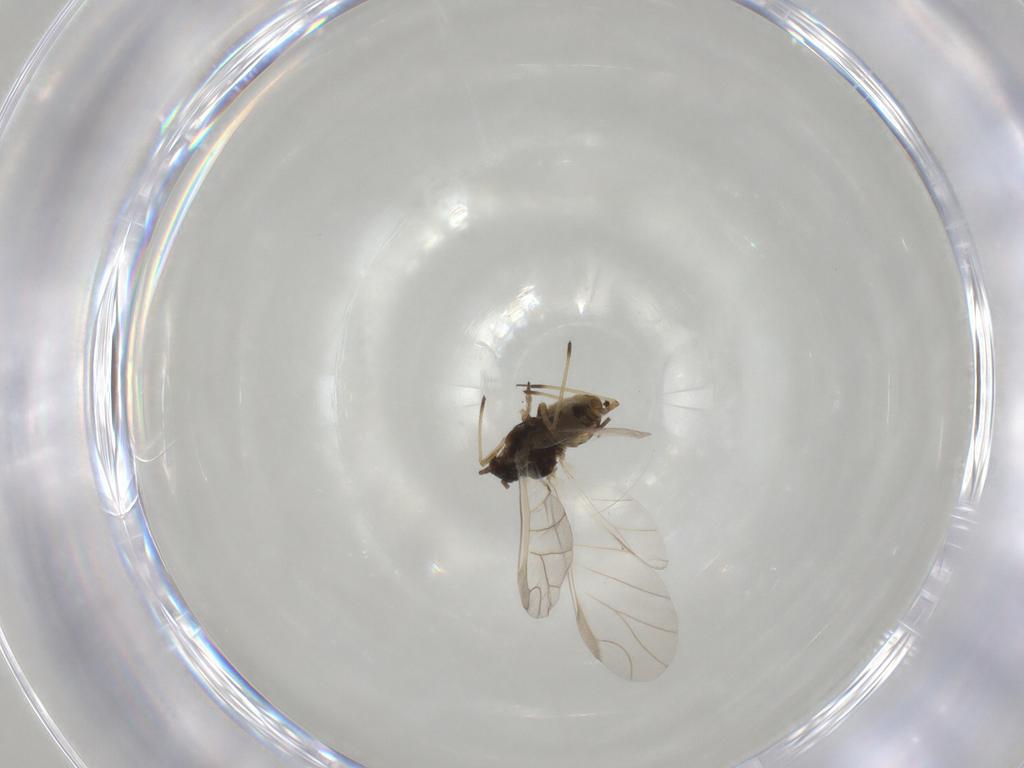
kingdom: Animalia
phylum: Arthropoda
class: Insecta
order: Hemiptera
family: Aphididae
